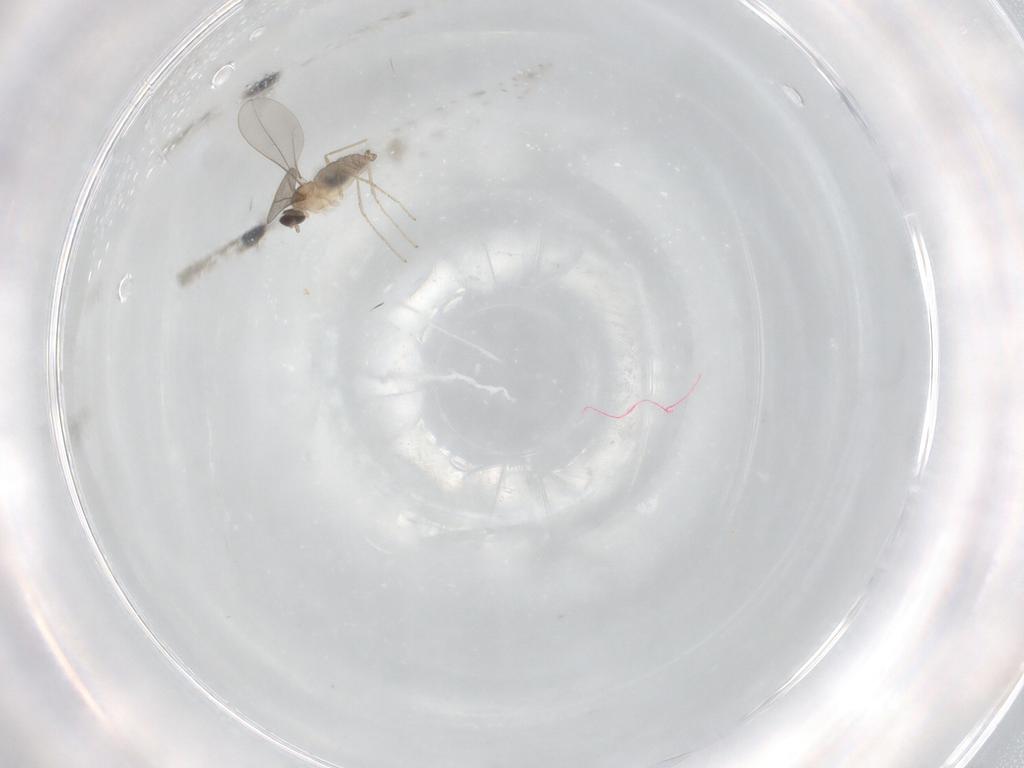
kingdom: Animalia
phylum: Arthropoda
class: Insecta
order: Diptera
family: Cecidomyiidae
